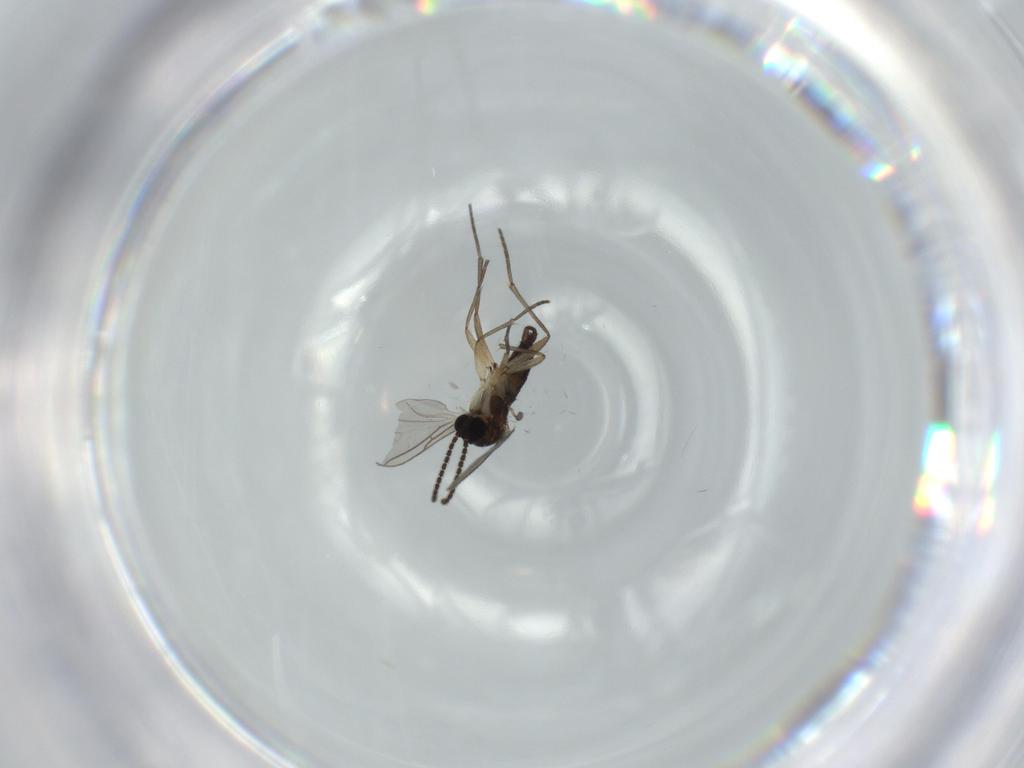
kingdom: Animalia
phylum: Arthropoda
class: Insecta
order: Diptera
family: Sciaridae
